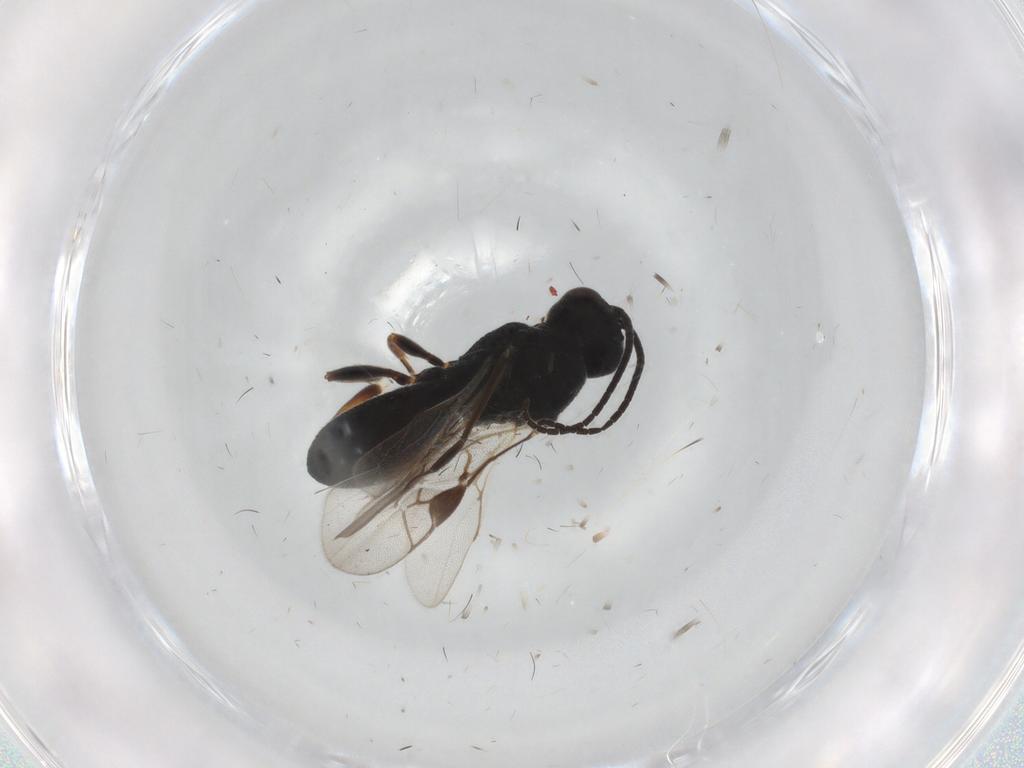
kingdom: Animalia
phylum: Arthropoda
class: Insecta
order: Hymenoptera
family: Braconidae
